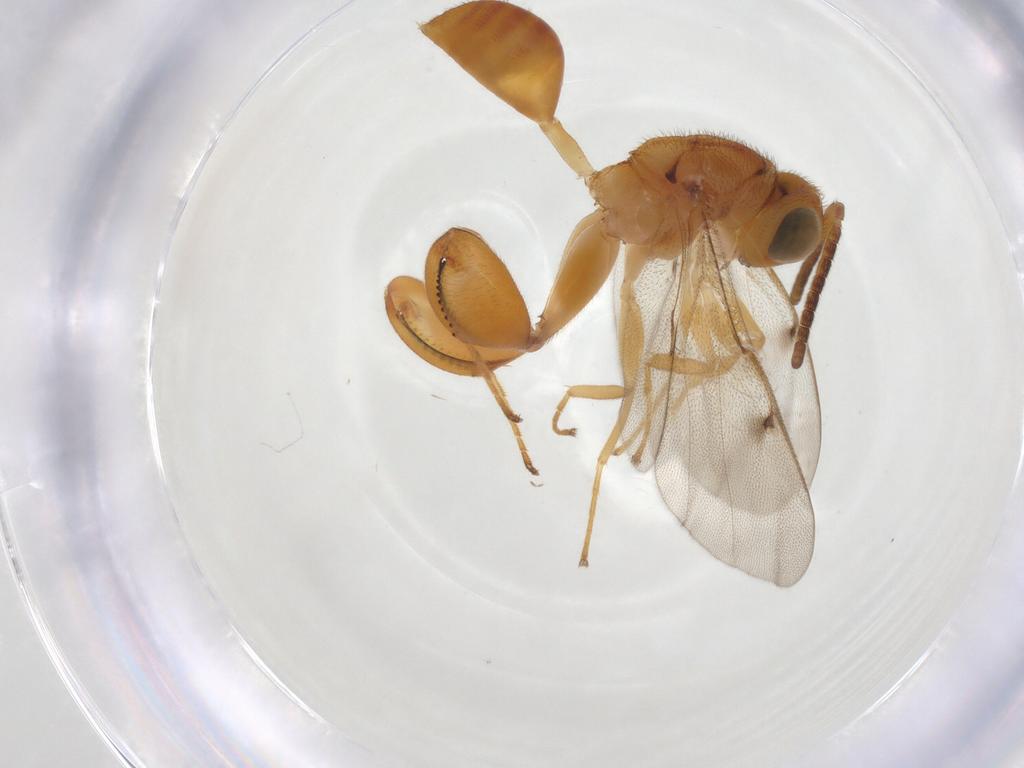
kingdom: Animalia
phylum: Arthropoda
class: Insecta
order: Hymenoptera
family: Chalcididae
